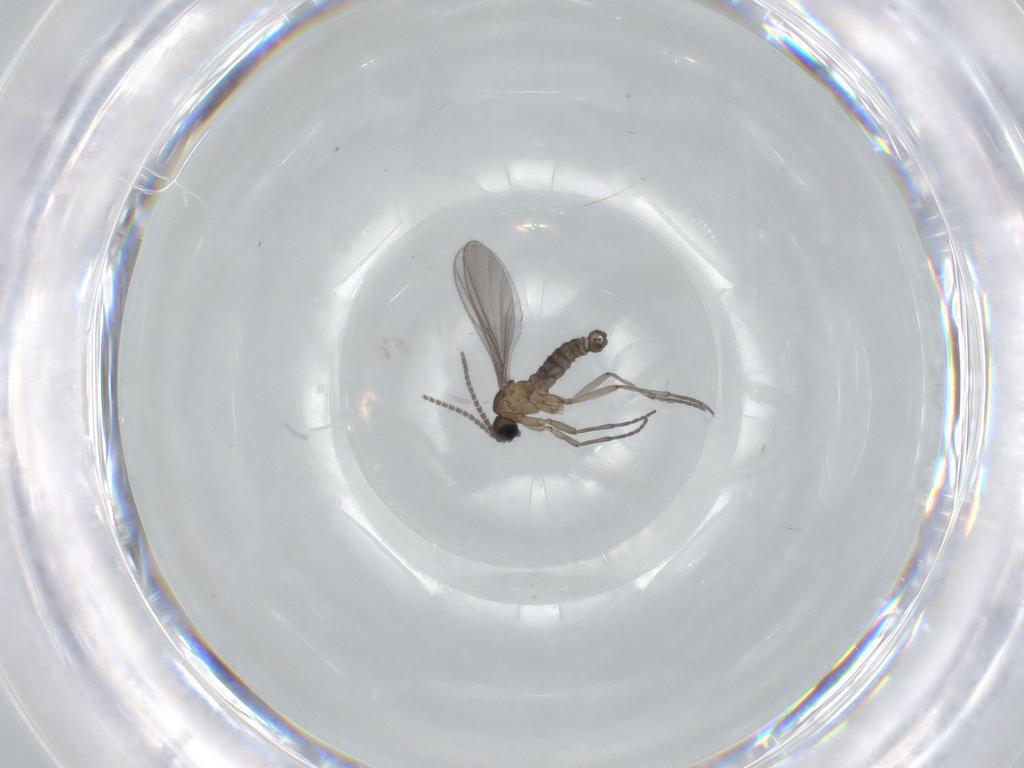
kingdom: Animalia
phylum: Arthropoda
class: Insecta
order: Diptera
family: Sciaridae
